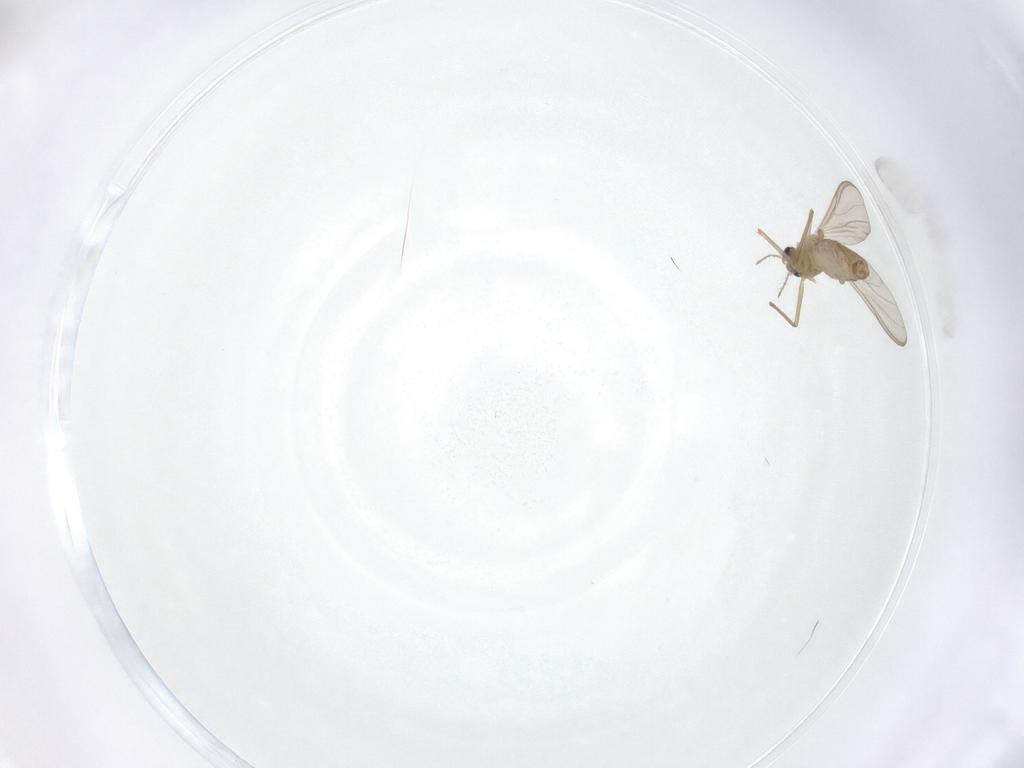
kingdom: Animalia
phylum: Arthropoda
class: Insecta
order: Diptera
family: Chironomidae
